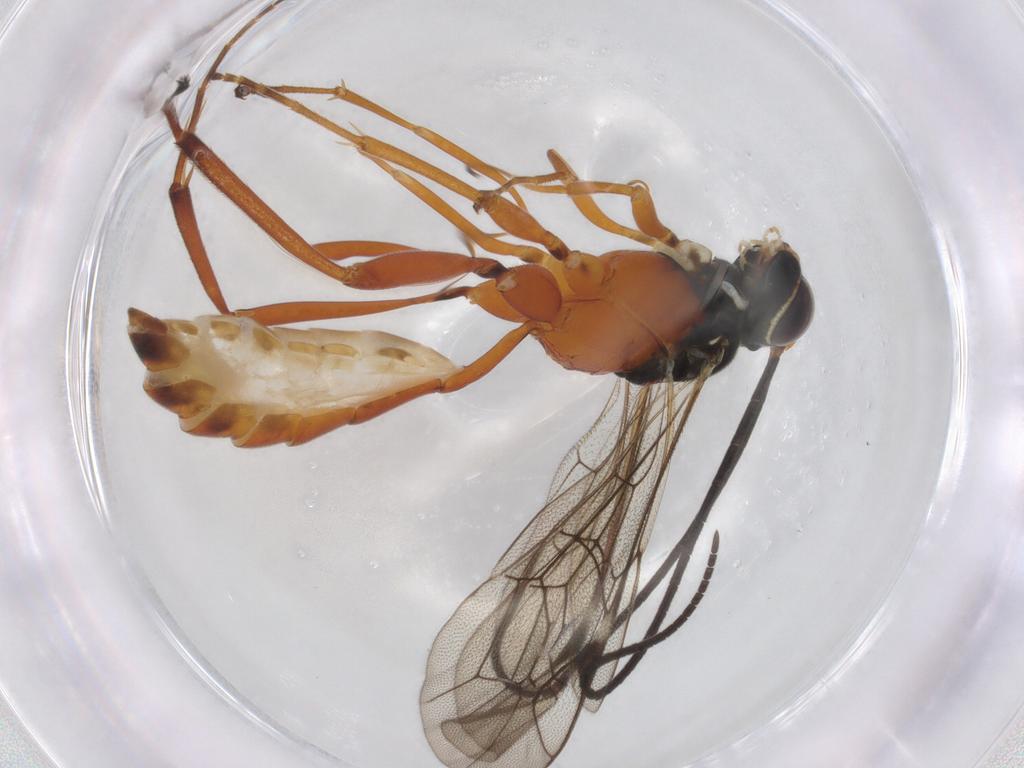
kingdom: Animalia
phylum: Arthropoda
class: Insecta
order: Hymenoptera
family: Ichneumonidae
